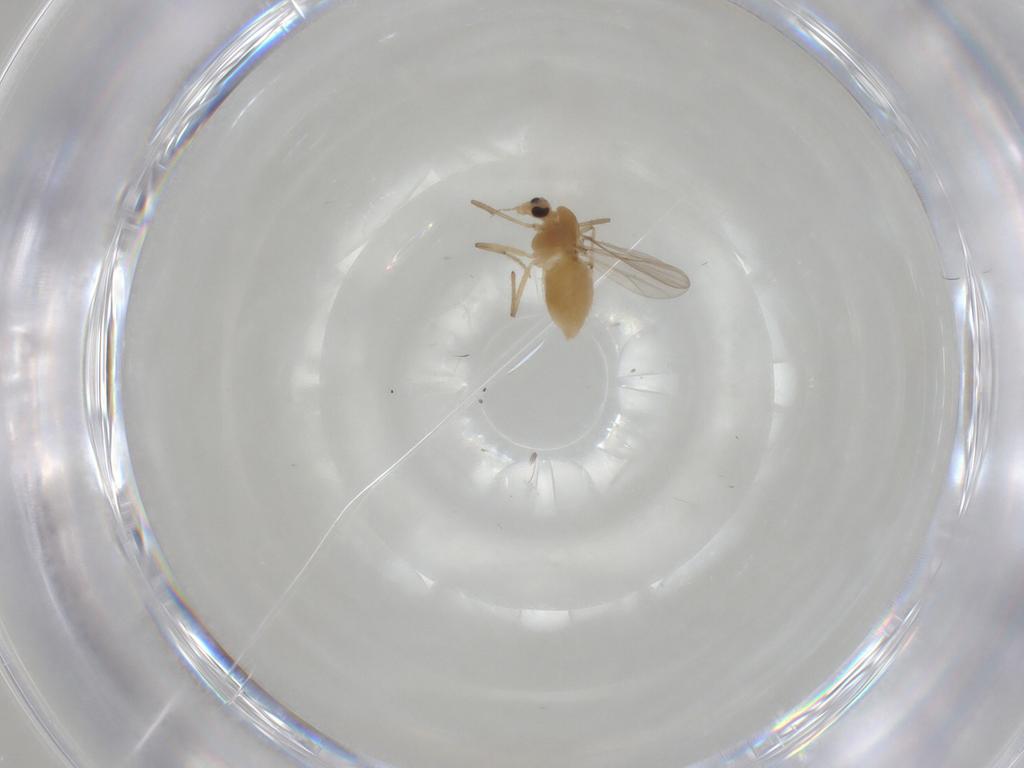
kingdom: Animalia
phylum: Arthropoda
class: Insecta
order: Diptera
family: Chironomidae
